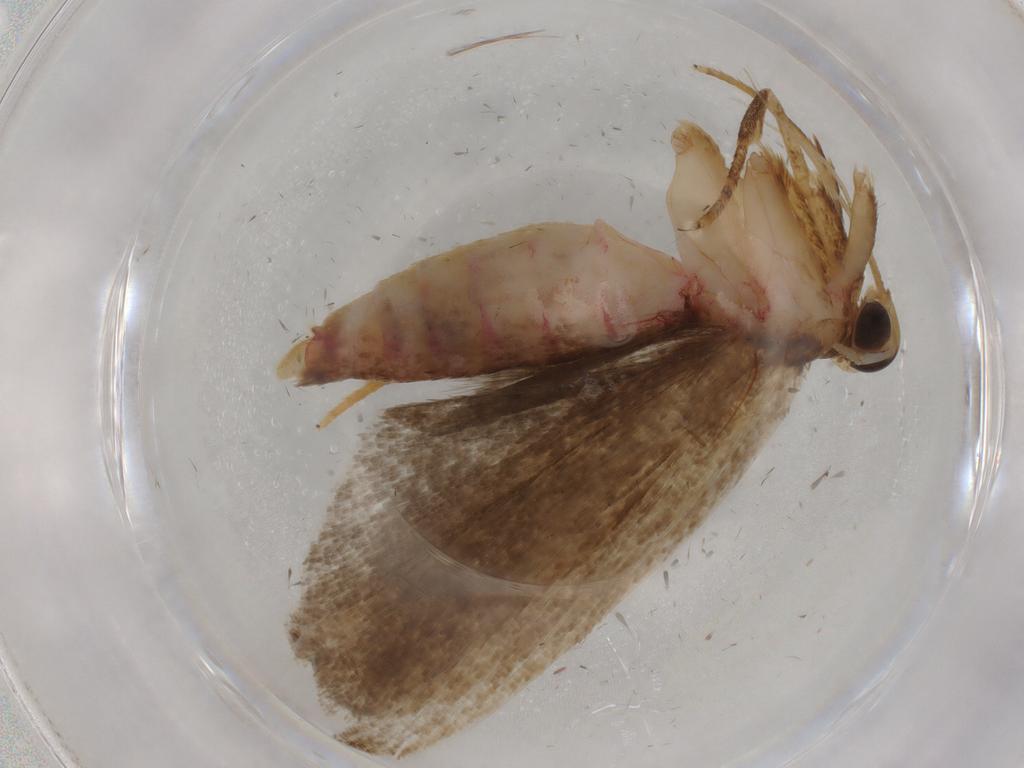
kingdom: Animalia
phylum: Arthropoda
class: Insecta
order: Lepidoptera
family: Autostichidae
